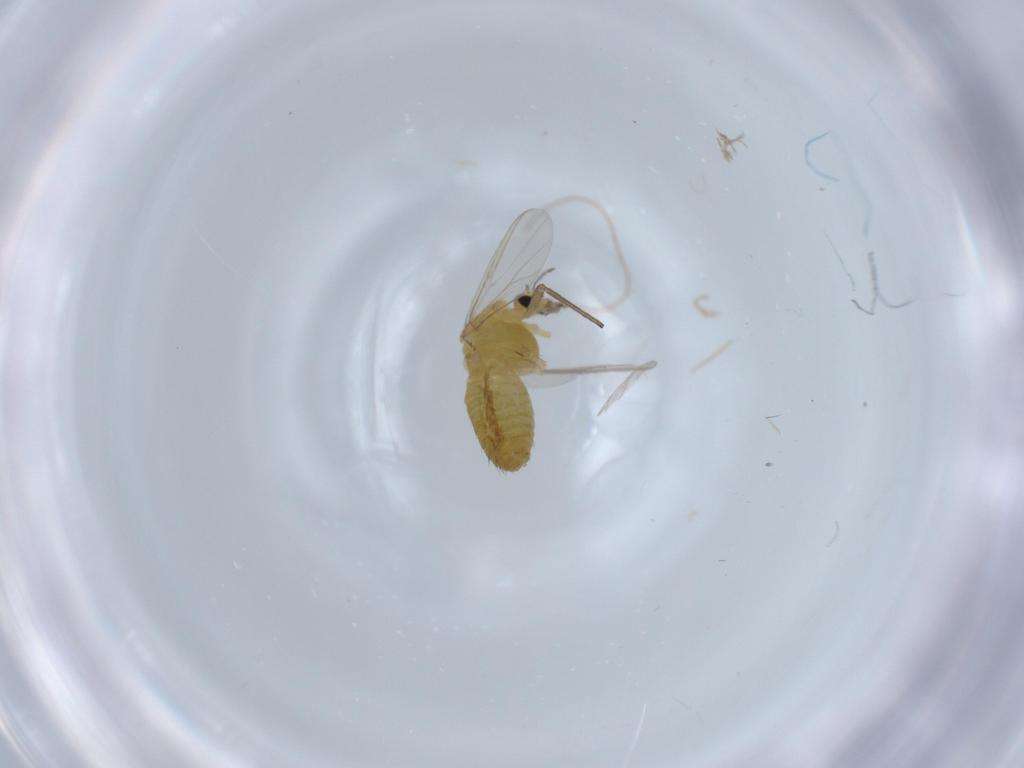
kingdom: Animalia
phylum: Arthropoda
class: Insecta
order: Diptera
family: Chironomidae
